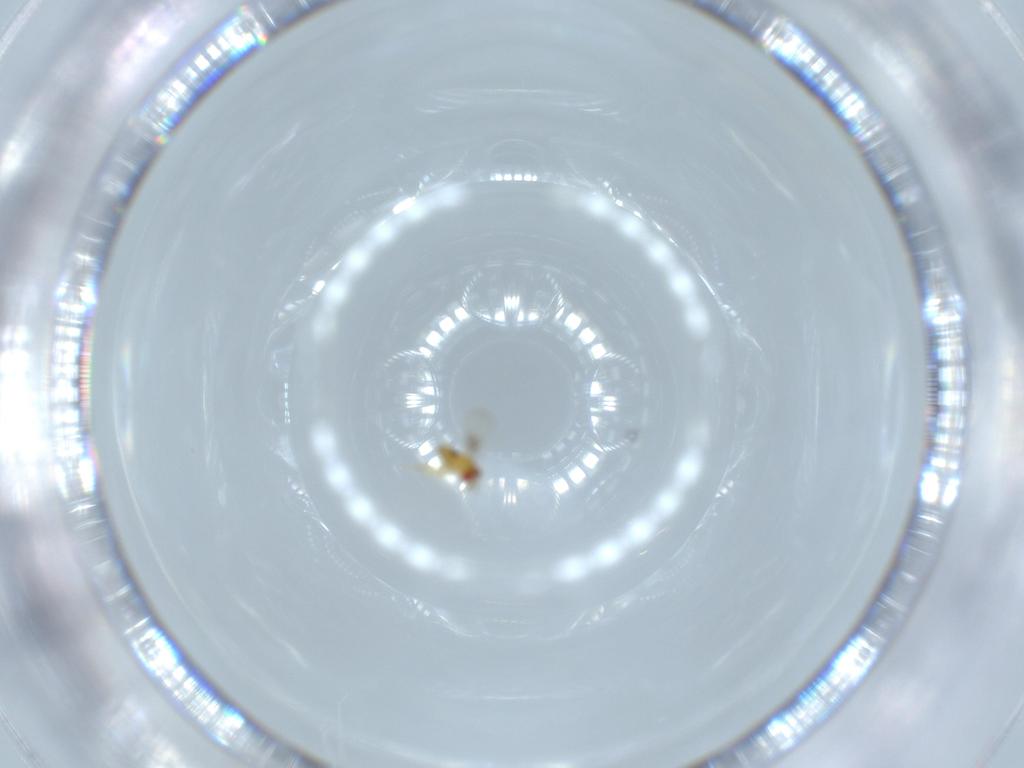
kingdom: Animalia
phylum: Arthropoda
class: Insecta
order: Hymenoptera
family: Trichogrammatidae
